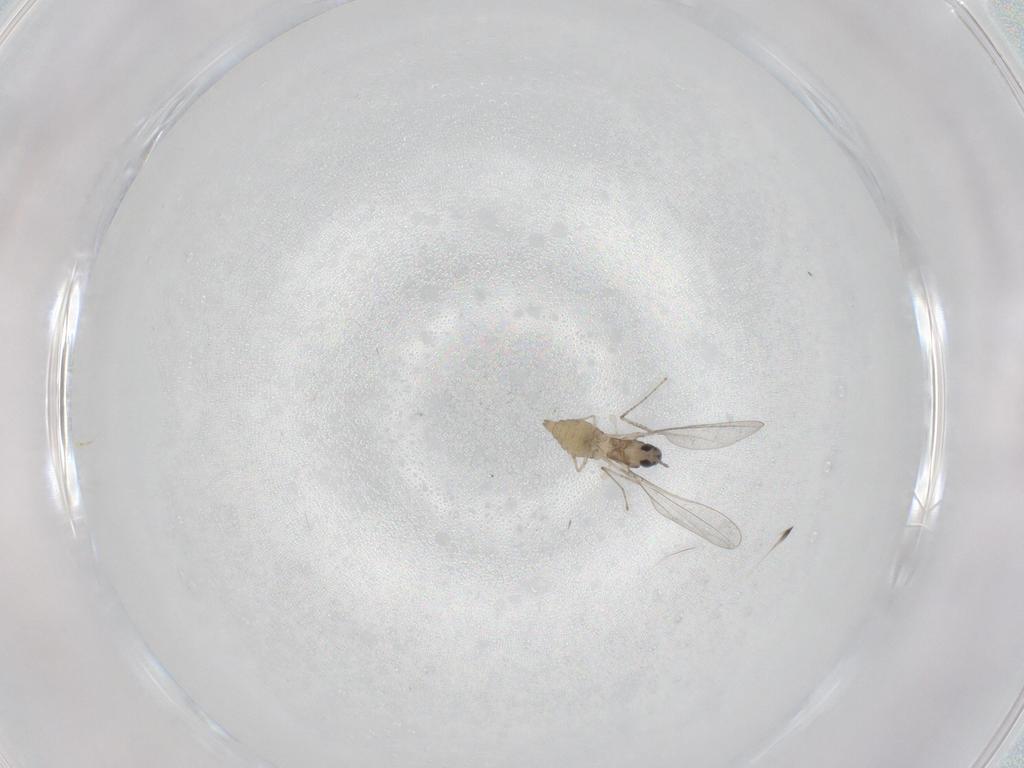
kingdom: Animalia
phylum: Arthropoda
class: Insecta
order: Diptera
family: Cecidomyiidae
